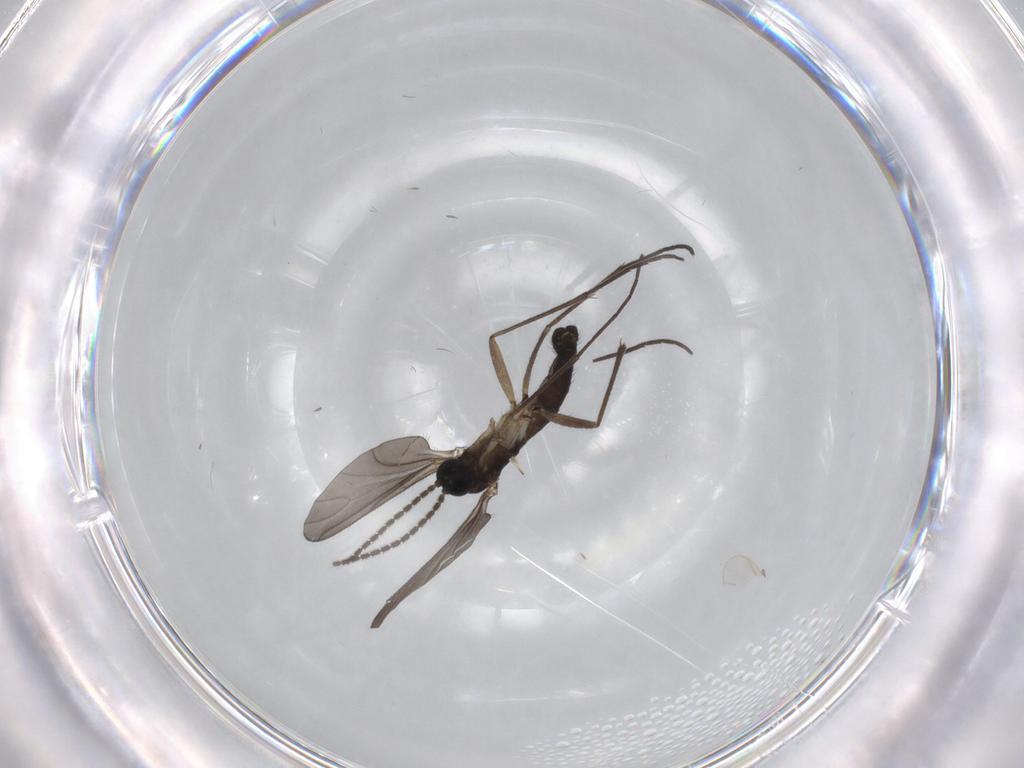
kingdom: Animalia
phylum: Arthropoda
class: Insecta
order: Diptera
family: Sciaridae
